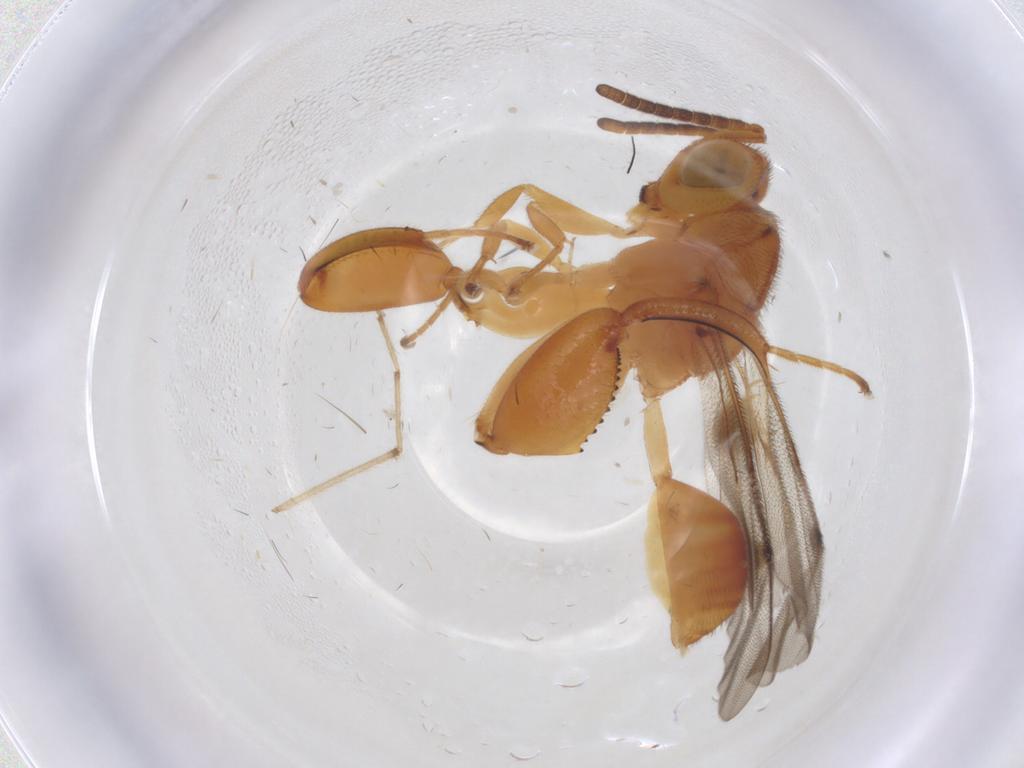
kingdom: Animalia
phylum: Arthropoda
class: Insecta
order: Hymenoptera
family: Chalcididae
